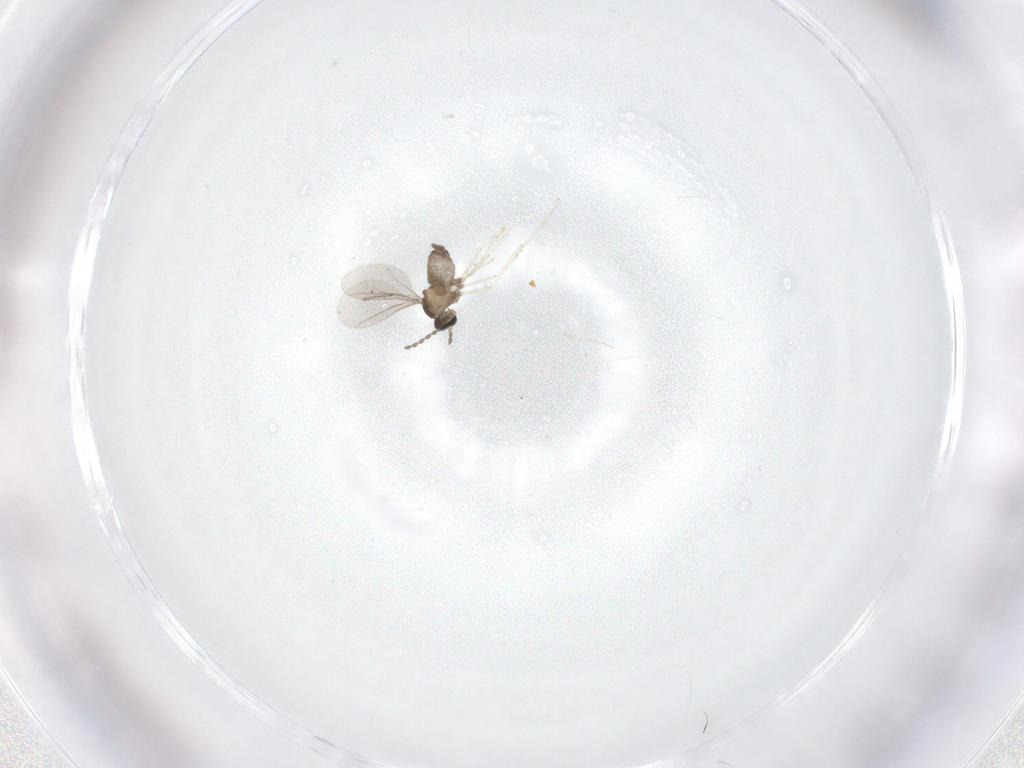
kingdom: Animalia
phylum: Arthropoda
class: Insecta
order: Diptera
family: Cecidomyiidae
